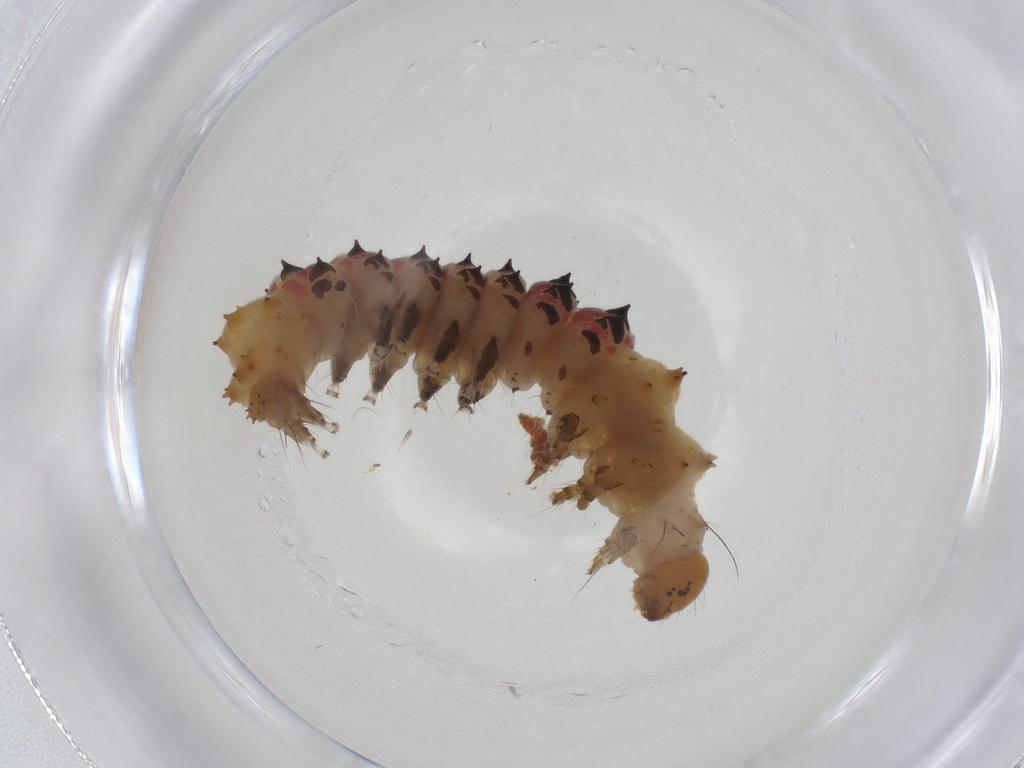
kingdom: Animalia
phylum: Arthropoda
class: Insecta
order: Lepidoptera
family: Erebidae
